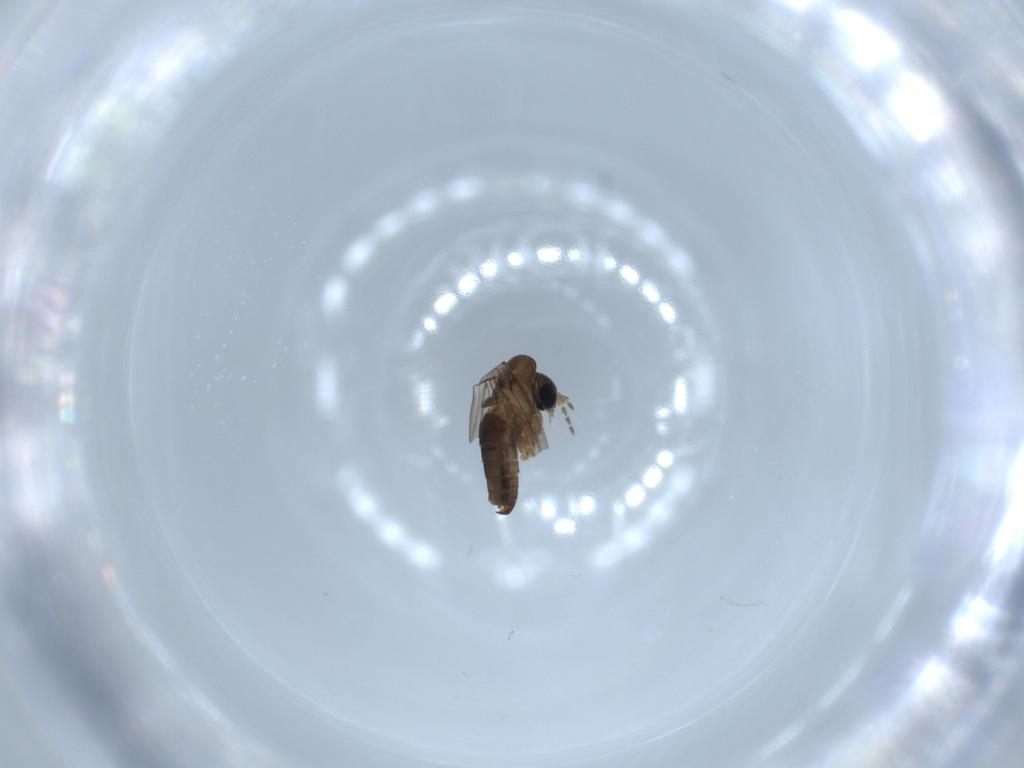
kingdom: Animalia
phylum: Arthropoda
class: Insecta
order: Diptera
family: Psychodidae
